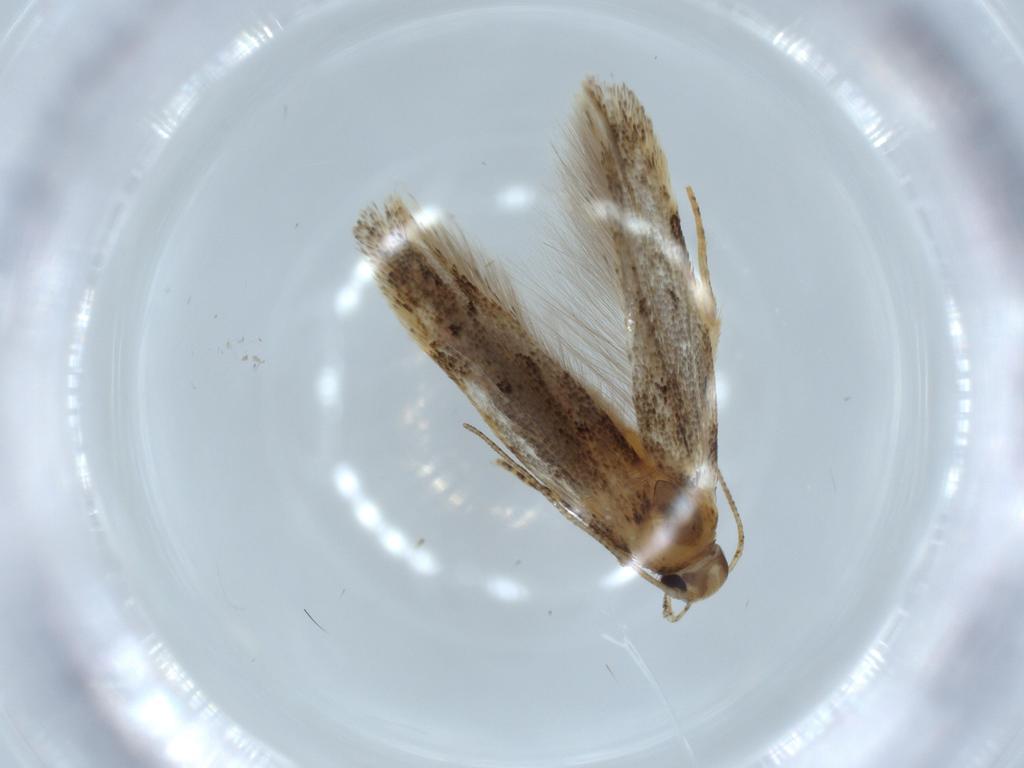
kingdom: Animalia
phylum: Arthropoda
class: Insecta
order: Lepidoptera
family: Gelechiidae
